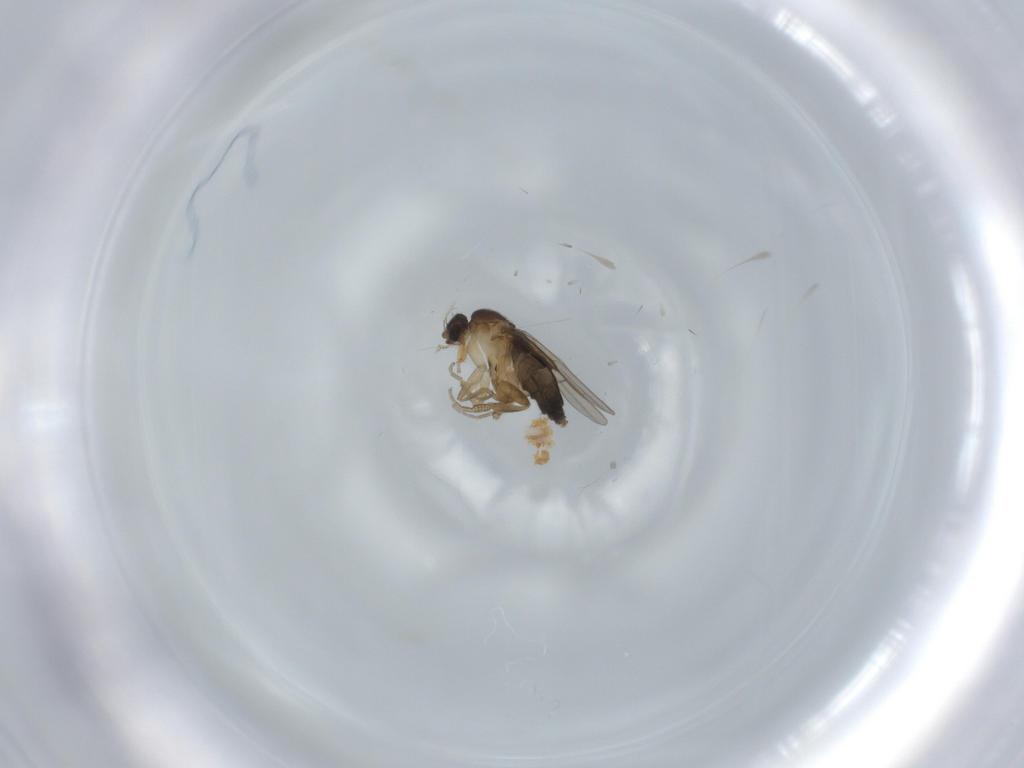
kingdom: Animalia
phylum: Arthropoda
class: Insecta
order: Diptera
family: Phoridae
